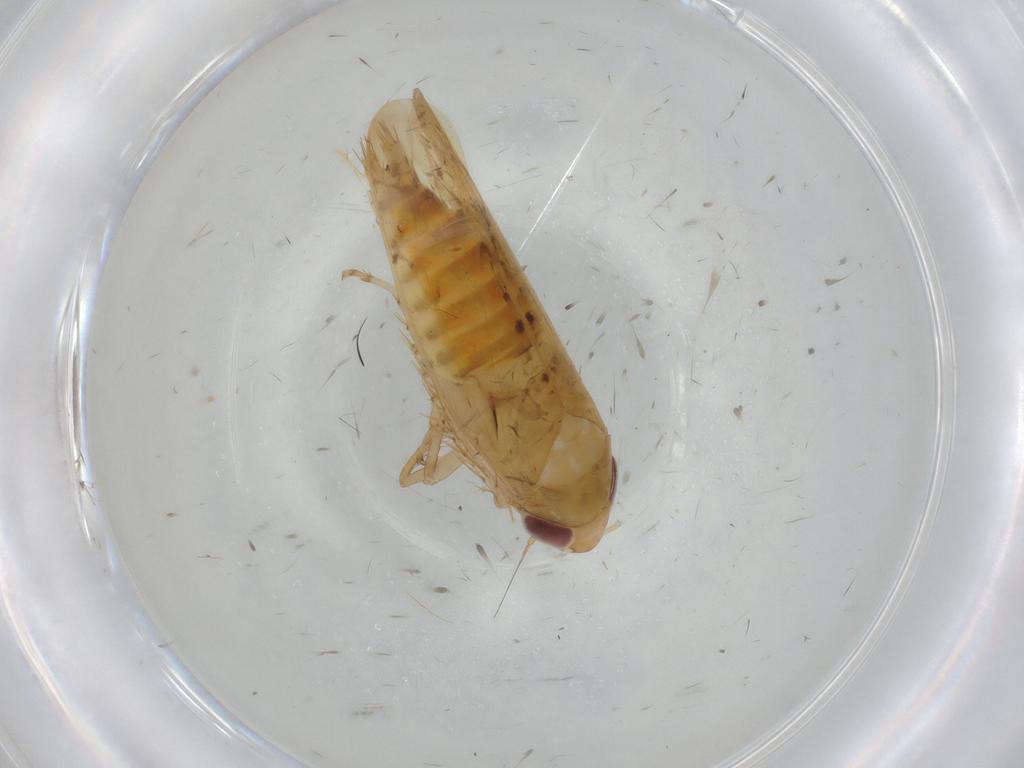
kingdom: Animalia
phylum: Arthropoda
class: Insecta
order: Hemiptera
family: Cicadellidae
